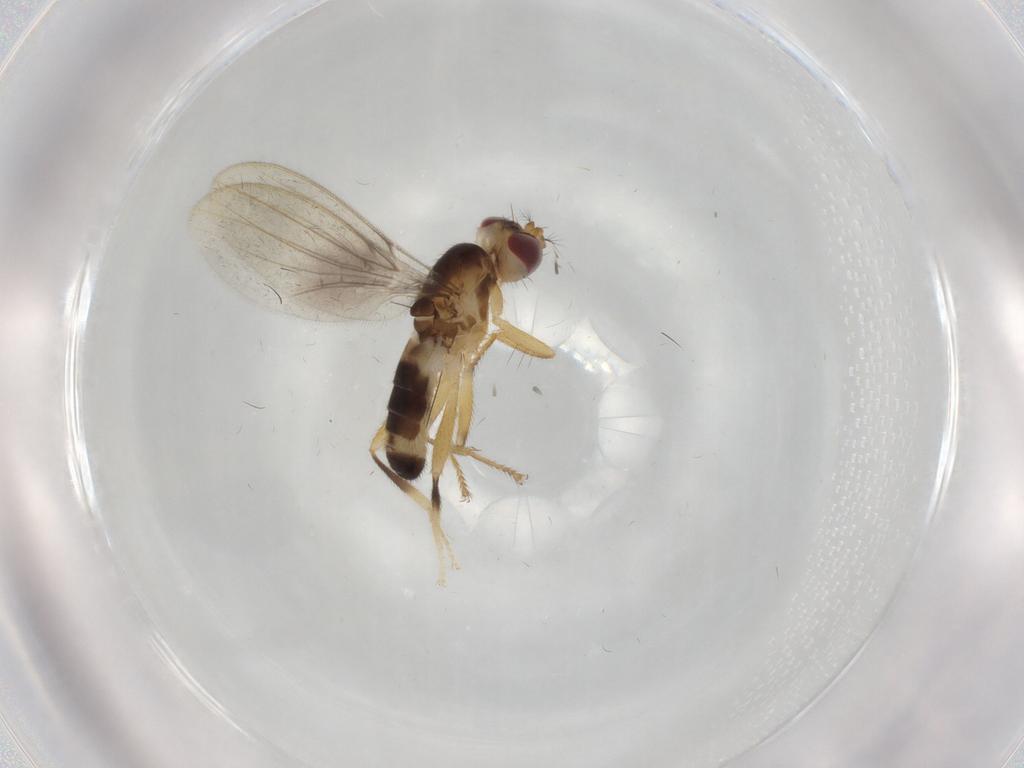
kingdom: Animalia
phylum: Arthropoda
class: Insecta
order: Diptera
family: Periscelididae
